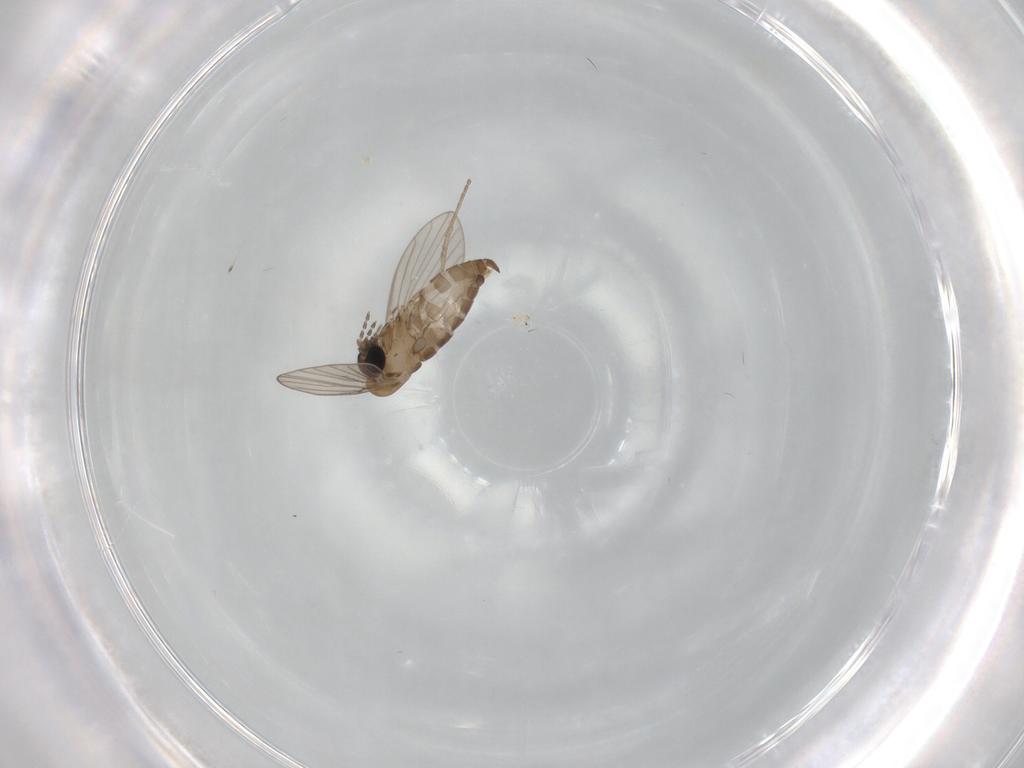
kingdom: Animalia
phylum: Arthropoda
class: Insecta
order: Diptera
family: Psychodidae
